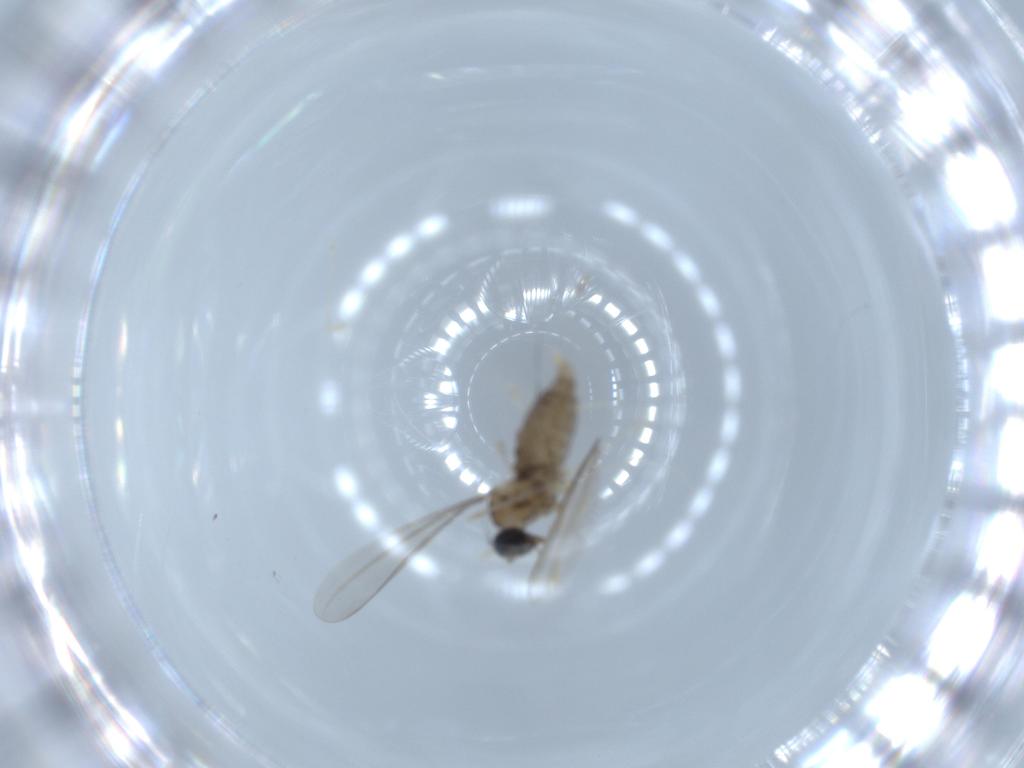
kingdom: Animalia
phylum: Arthropoda
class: Insecta
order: Diptera
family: Cecidomyiidae
